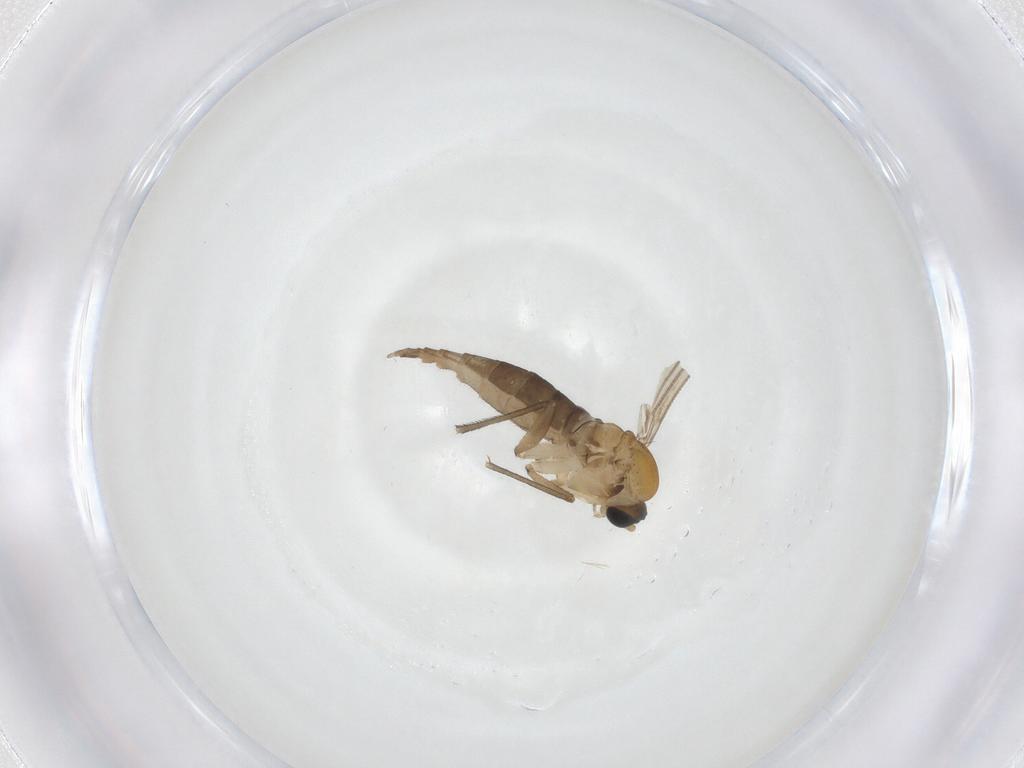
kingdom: Animalia
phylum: Arthropoda
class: Insecta
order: Diptera
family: Sciaridae
